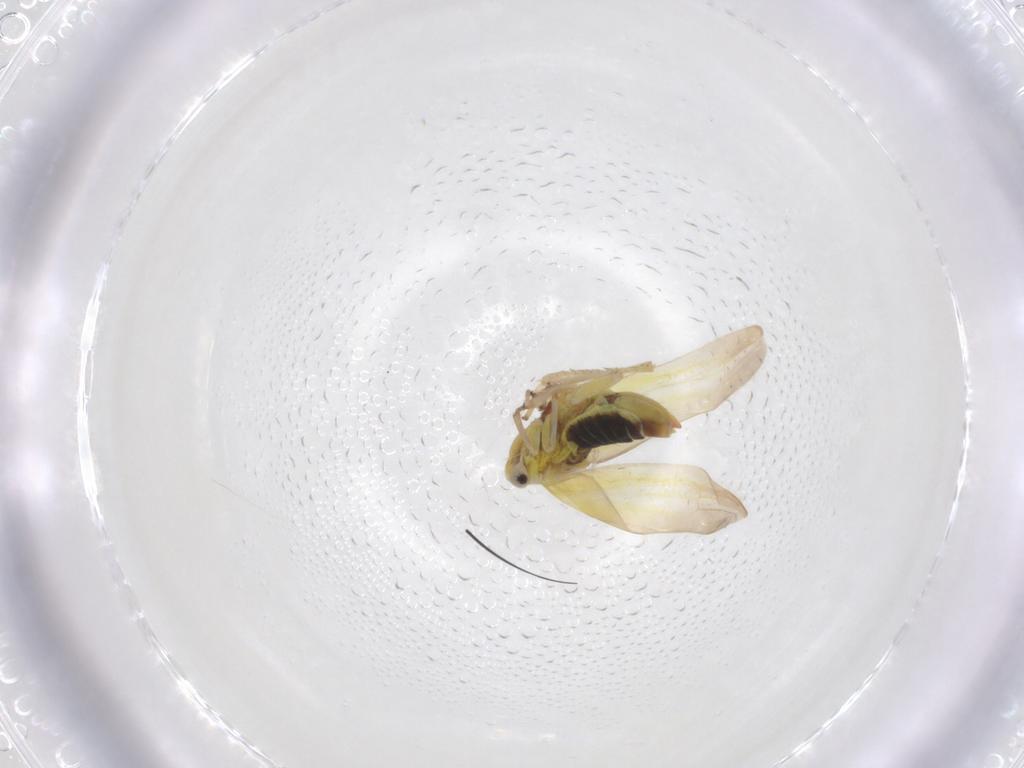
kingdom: Animalia
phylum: Arthropoda
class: Insecta
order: Hemiptera
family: Cicadellidae
